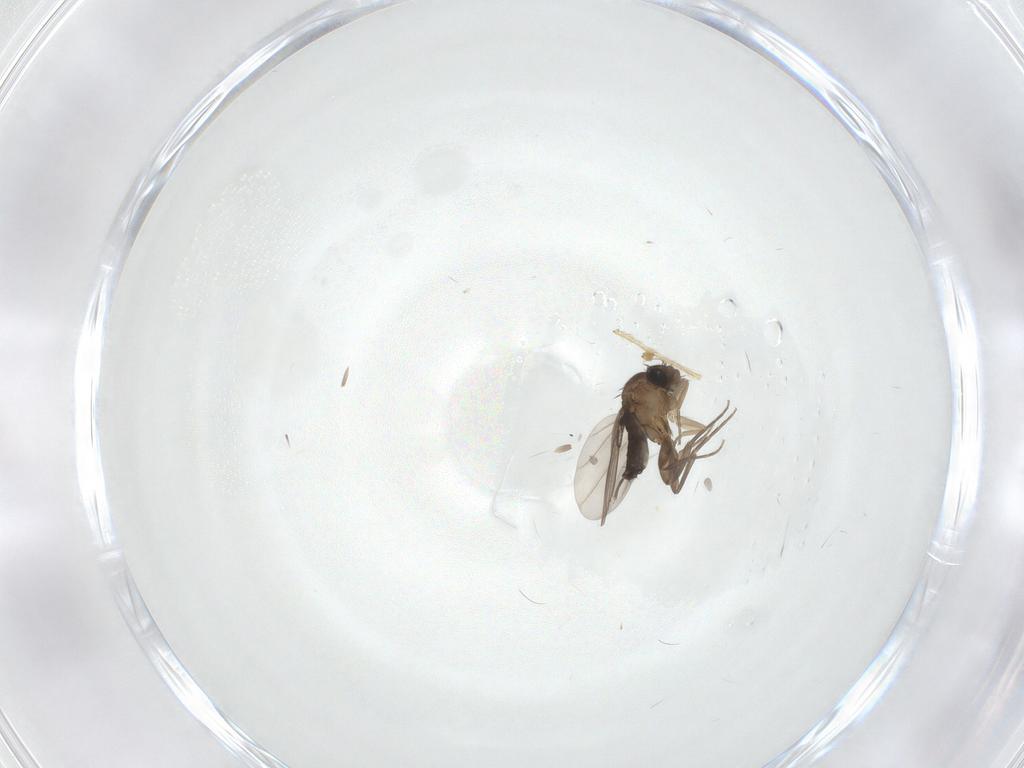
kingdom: Animalia
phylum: Arthropoda
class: Insecta
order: Diptera
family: Phoridae
